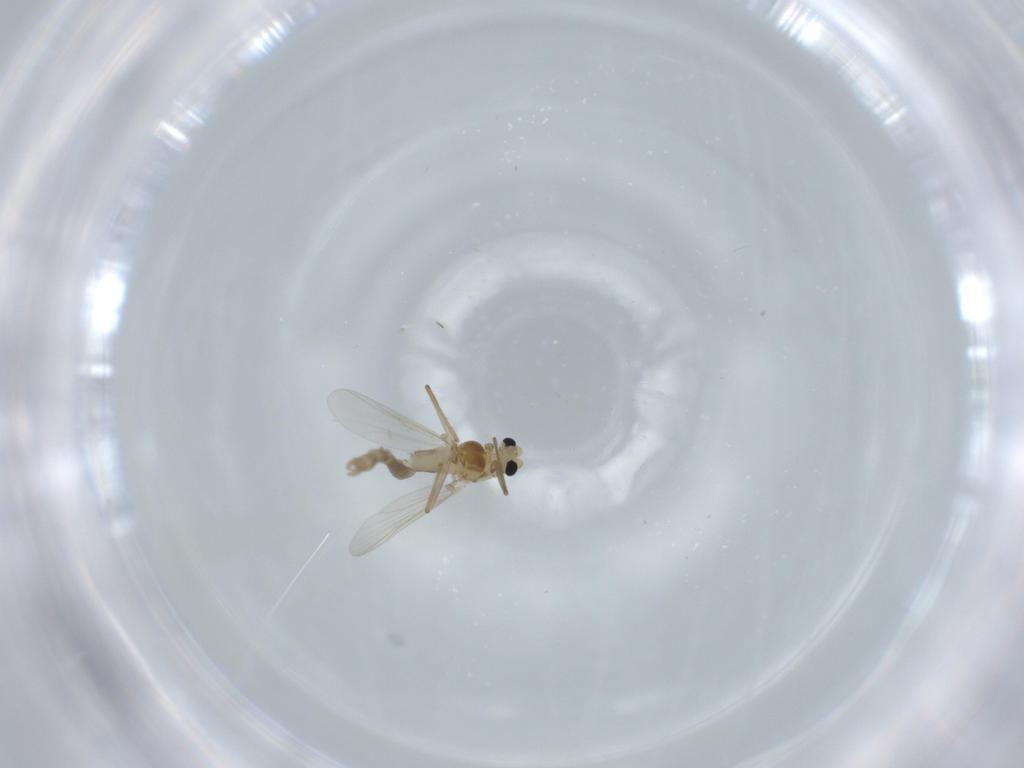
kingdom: Animalia
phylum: Arthropoda
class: Insecta
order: Diptera
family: Chironomidae
